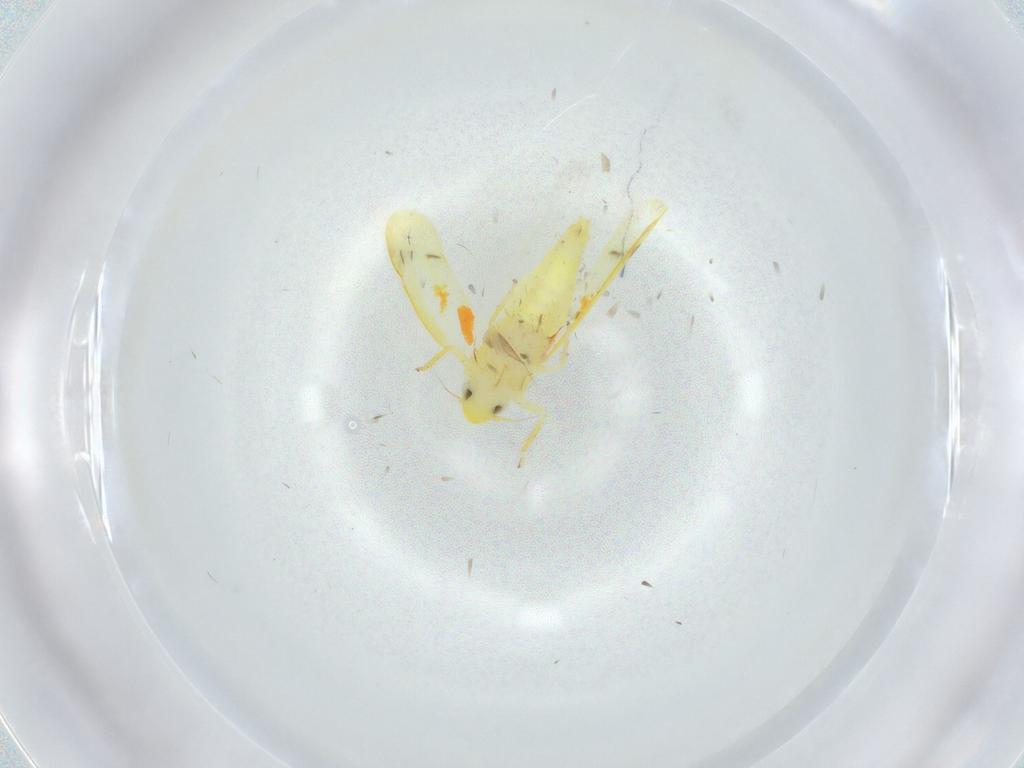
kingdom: Animalia
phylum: Arthropoda
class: Insecta
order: Hemiptera
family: Cicadellidae
